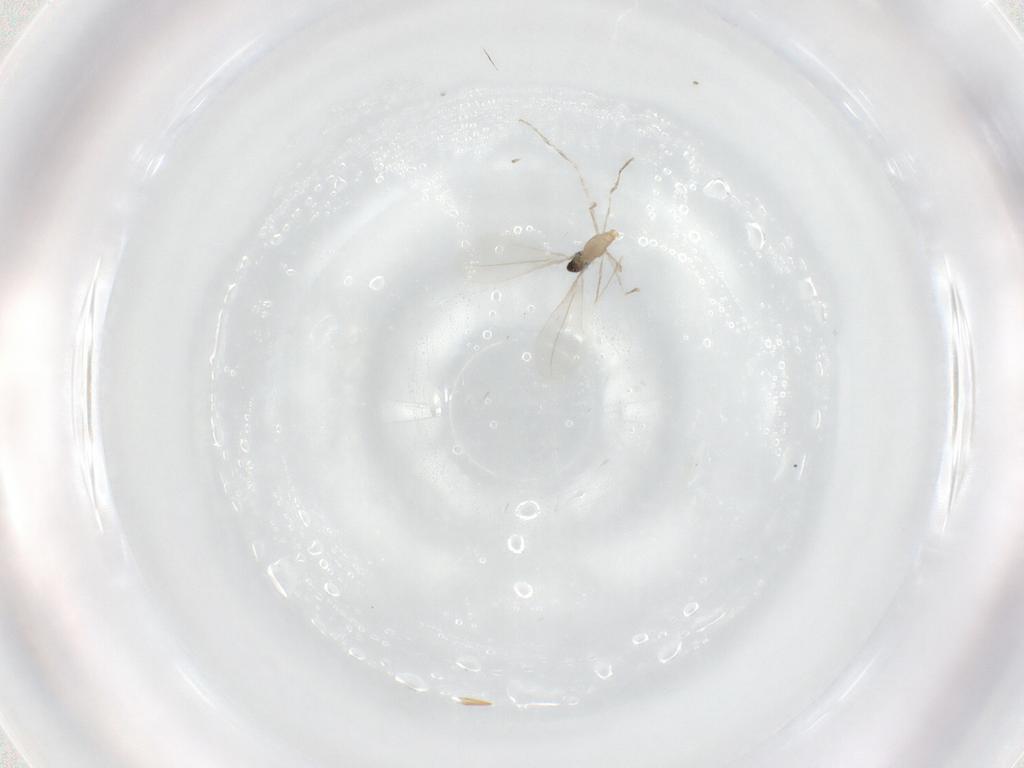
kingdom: Animalia
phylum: Arthropoda
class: Insecta
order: Diptera
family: Cecidomyiidae
